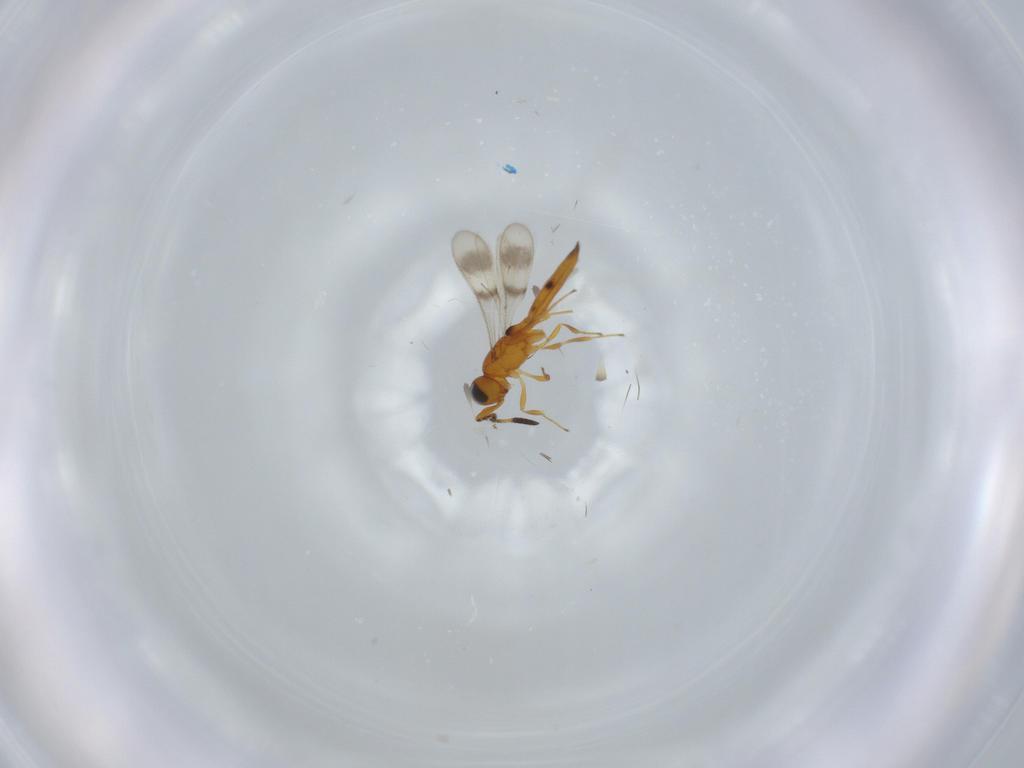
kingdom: Animalia
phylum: Arthropoda
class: Insecta
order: Hymenoptera
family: Scelionidae
